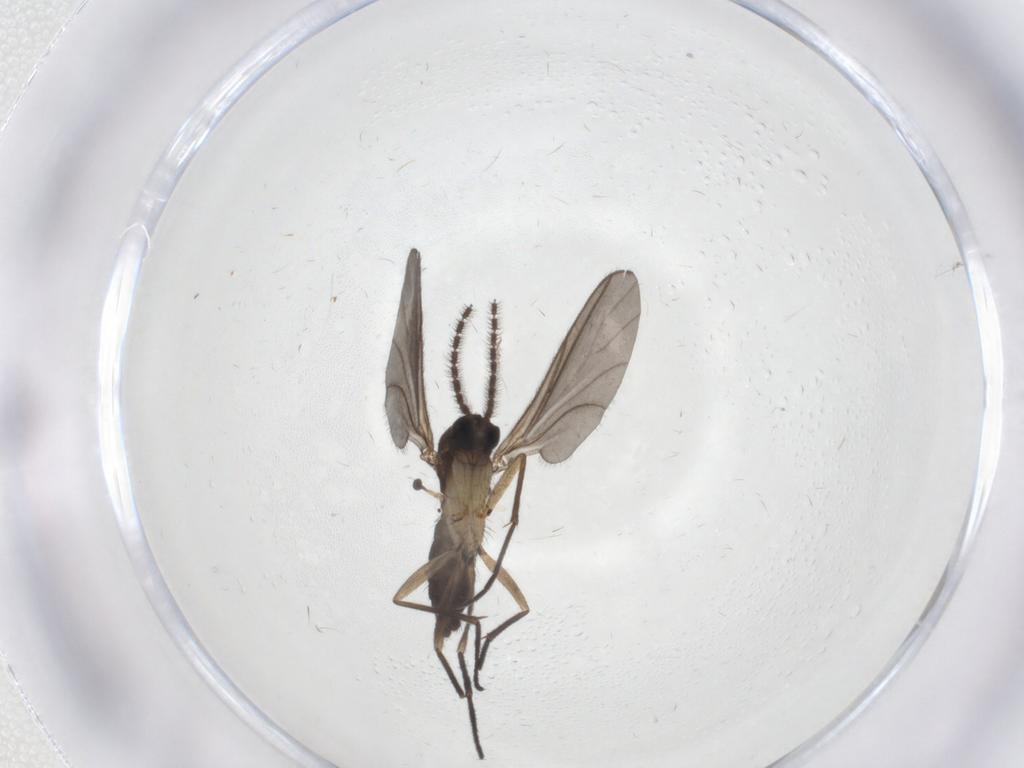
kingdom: Animalia
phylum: Arthropoda
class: Insecta
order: Diptera
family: Sciaridae
